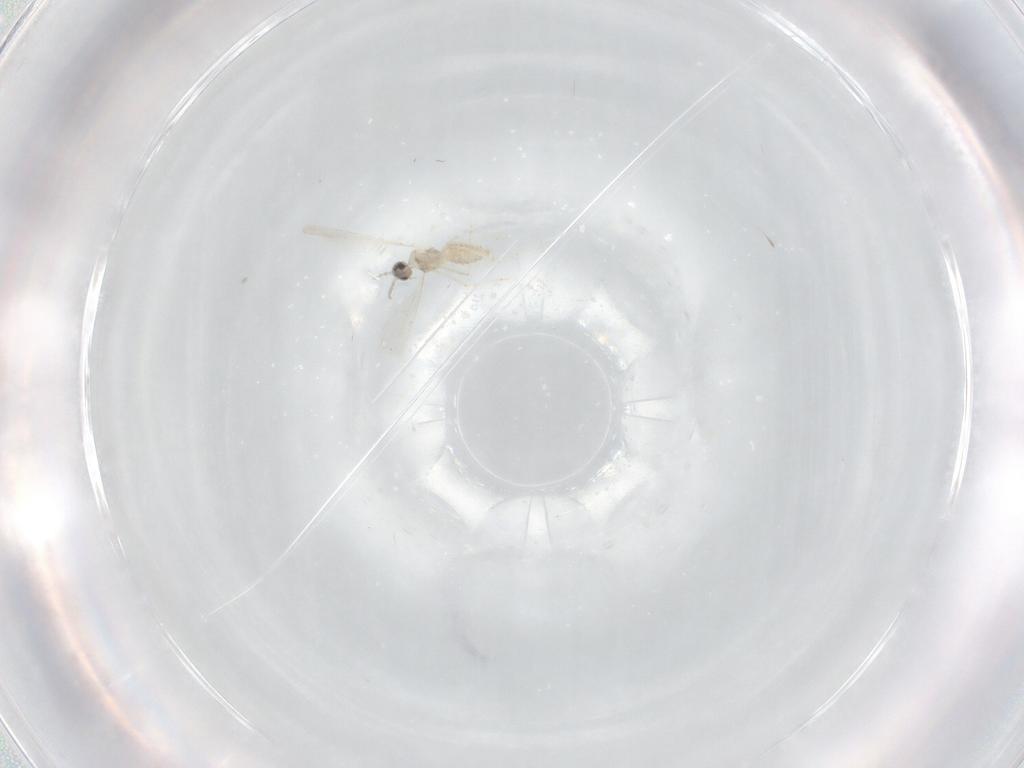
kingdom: Animalia
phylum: Arthropoda
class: Insecta
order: Diptera
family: Cecidomyiidae
